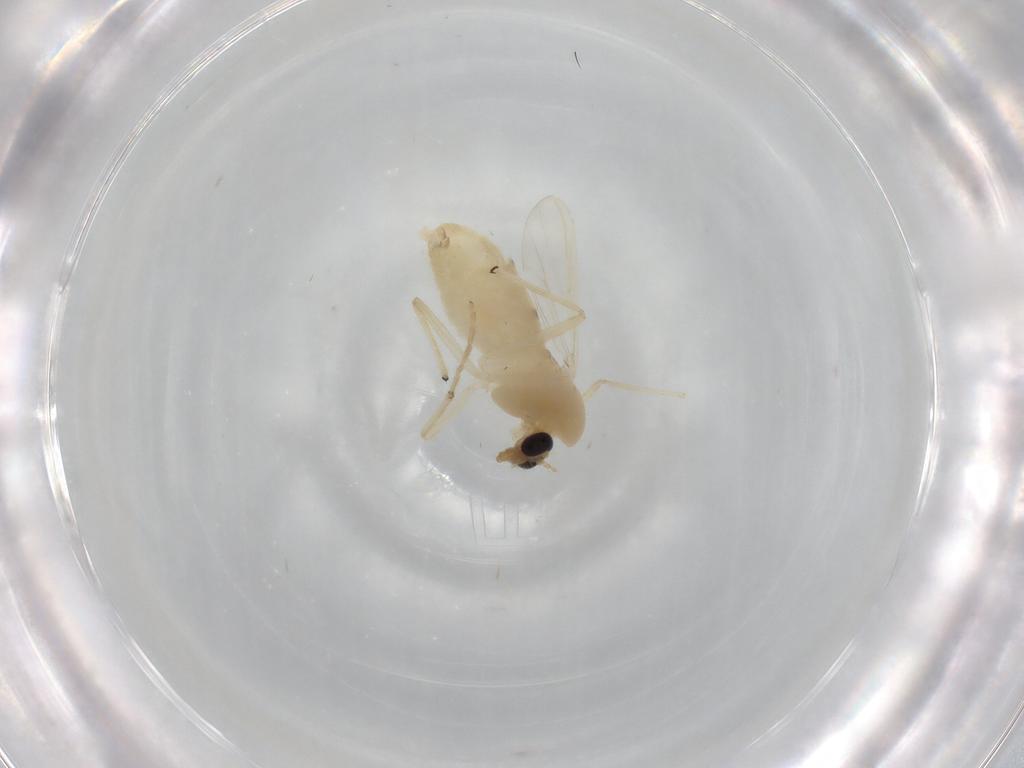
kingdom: Animalia
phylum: Arthropoda
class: Insecta
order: Diptera
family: Chironomidae
